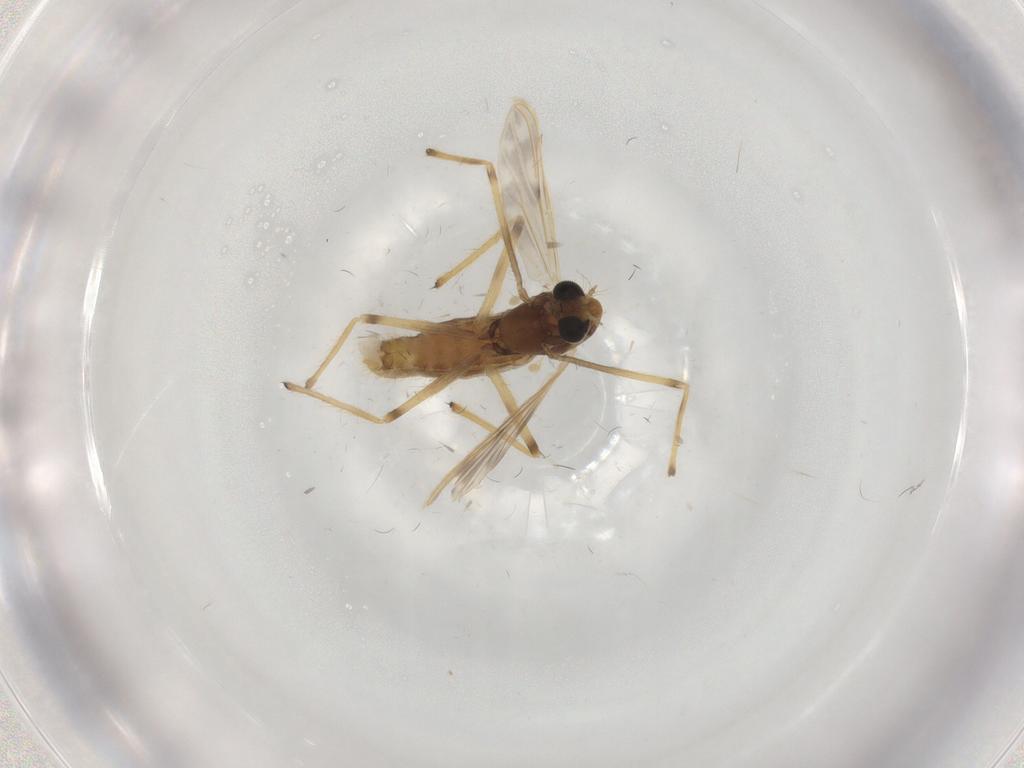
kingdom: Animalia
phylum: Arthropoda
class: Insecta
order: Diptera
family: Chironomidae
